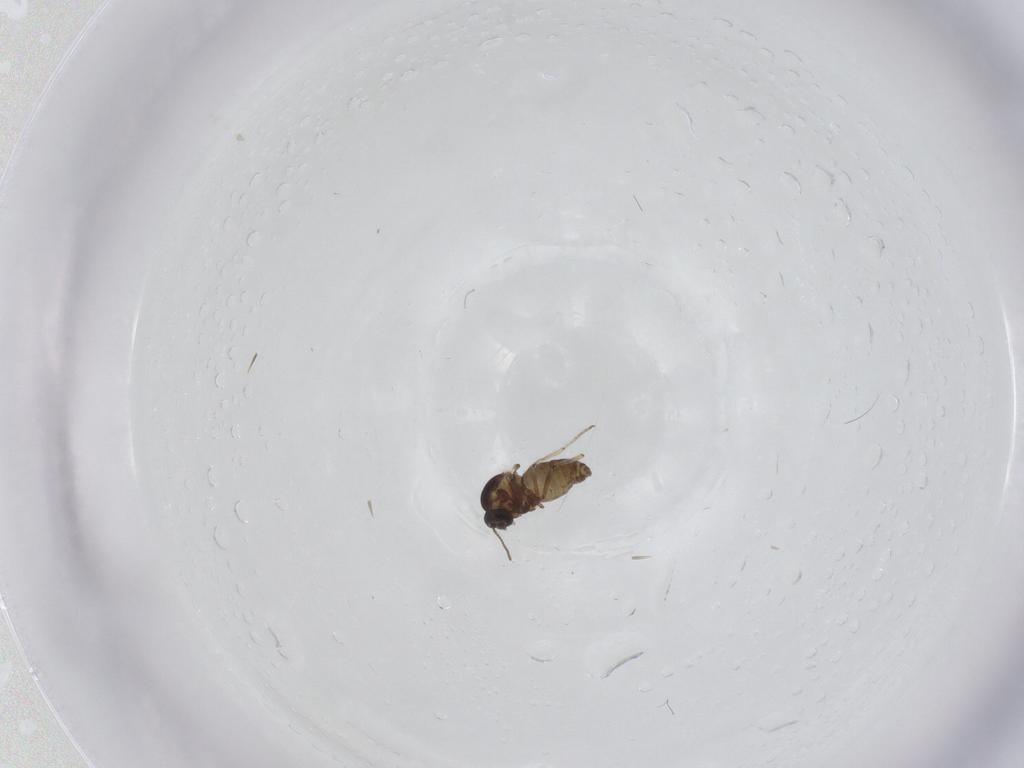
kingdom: Animalia
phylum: Arthropoda
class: Insecta
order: Diptera
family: Ceratopogonidae
